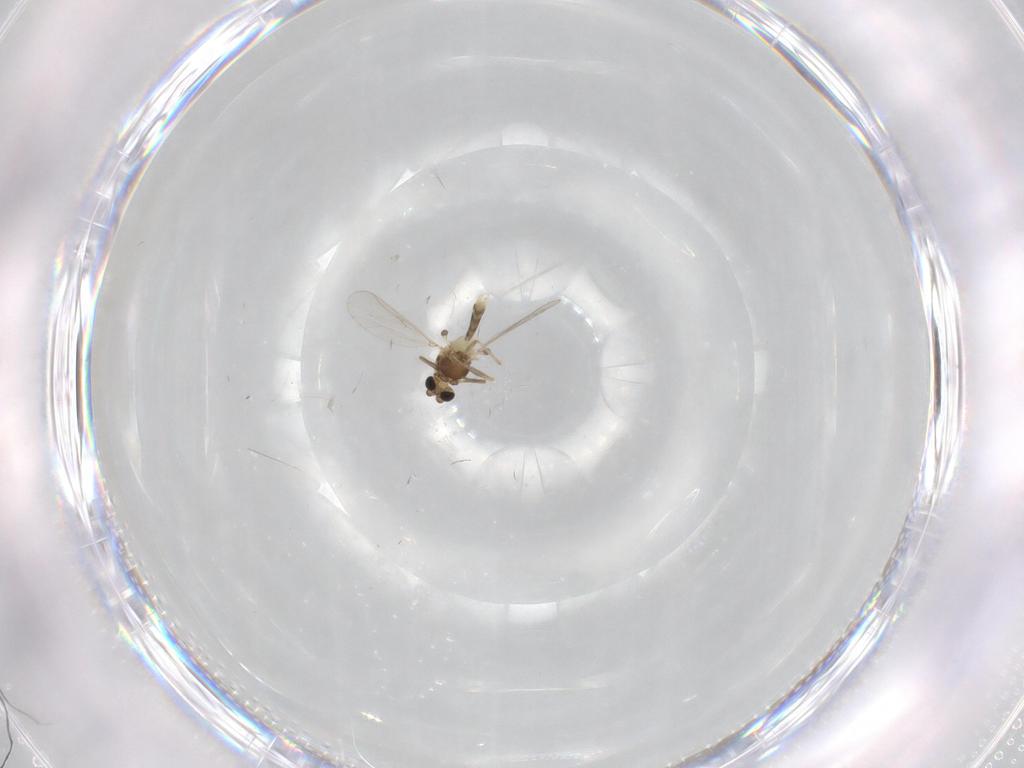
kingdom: Animalia
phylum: Arthropoda
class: Insecta
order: Diptera
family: Chironomidae
